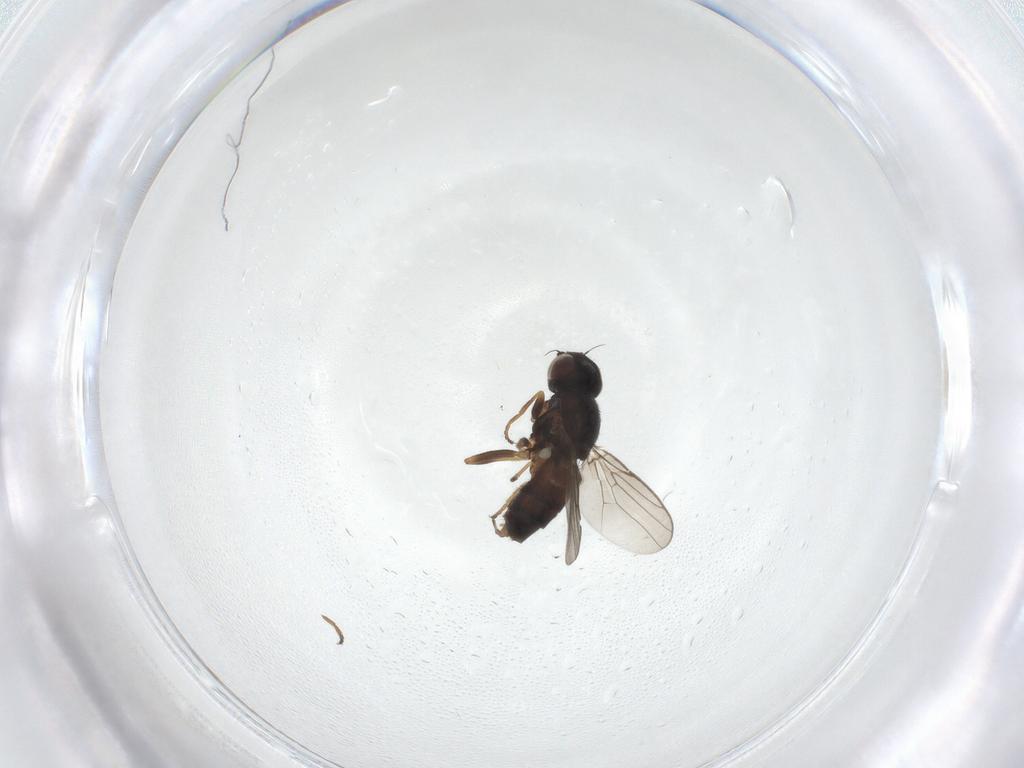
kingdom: Animalia
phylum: Arthropoda
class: Insecta
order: Diptera
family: Chloropidae
